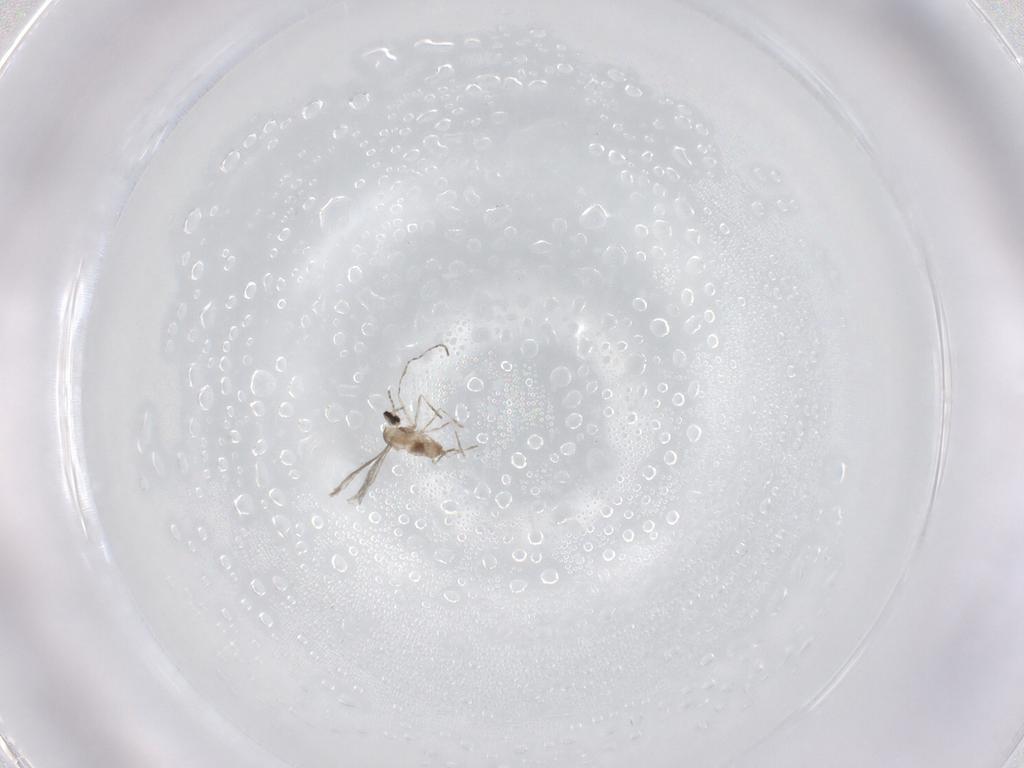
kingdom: Animalia
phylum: Arthropoda
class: Insecta
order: Diptera
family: Cecidomyiidae
